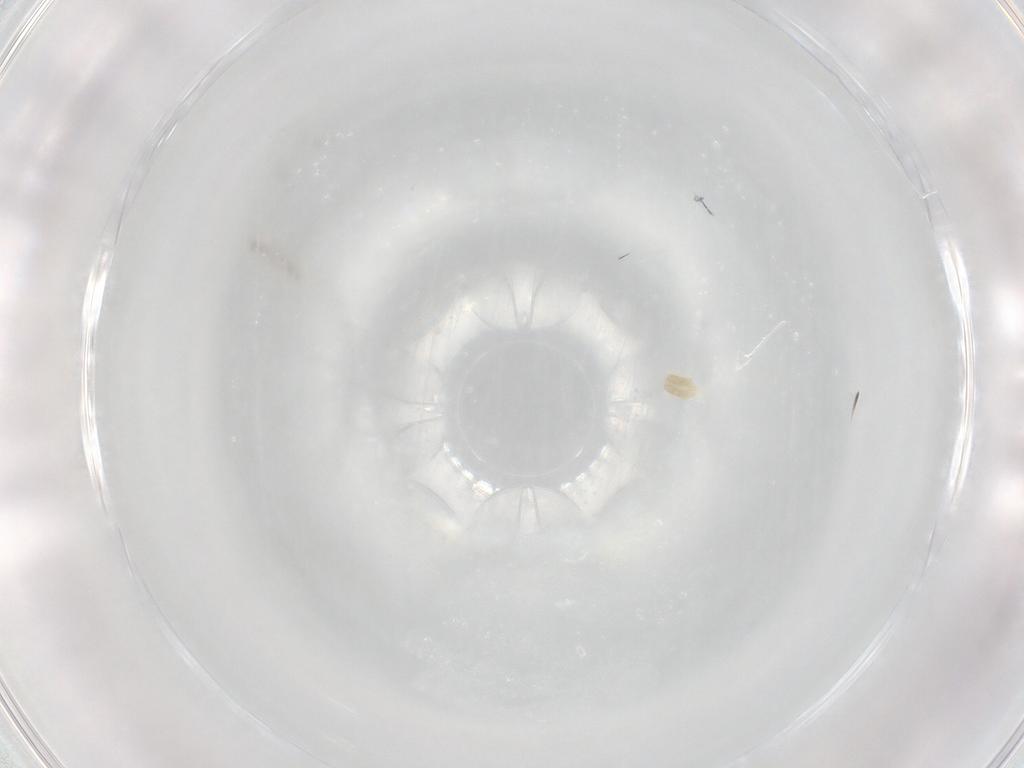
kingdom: Animalia
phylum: Arthropoda
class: Arachnida
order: Trombidiformes
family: Eupodidae
